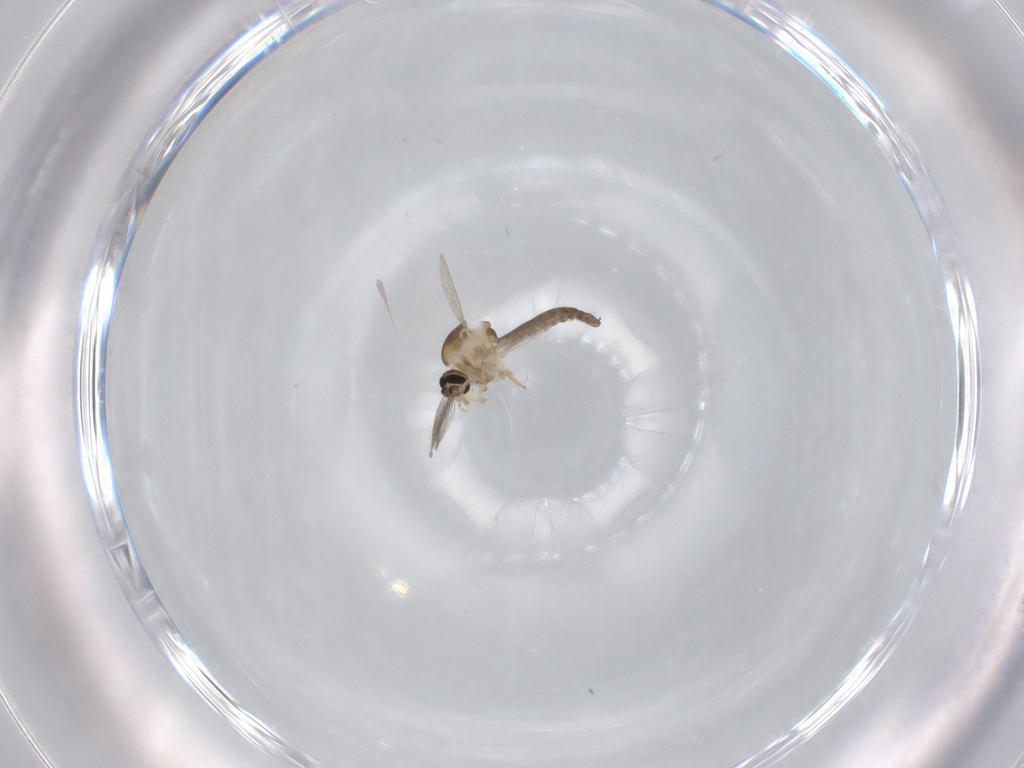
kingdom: Animalia
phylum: Arthropoda
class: Insecta
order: Diptera
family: Ceratopogonidae
